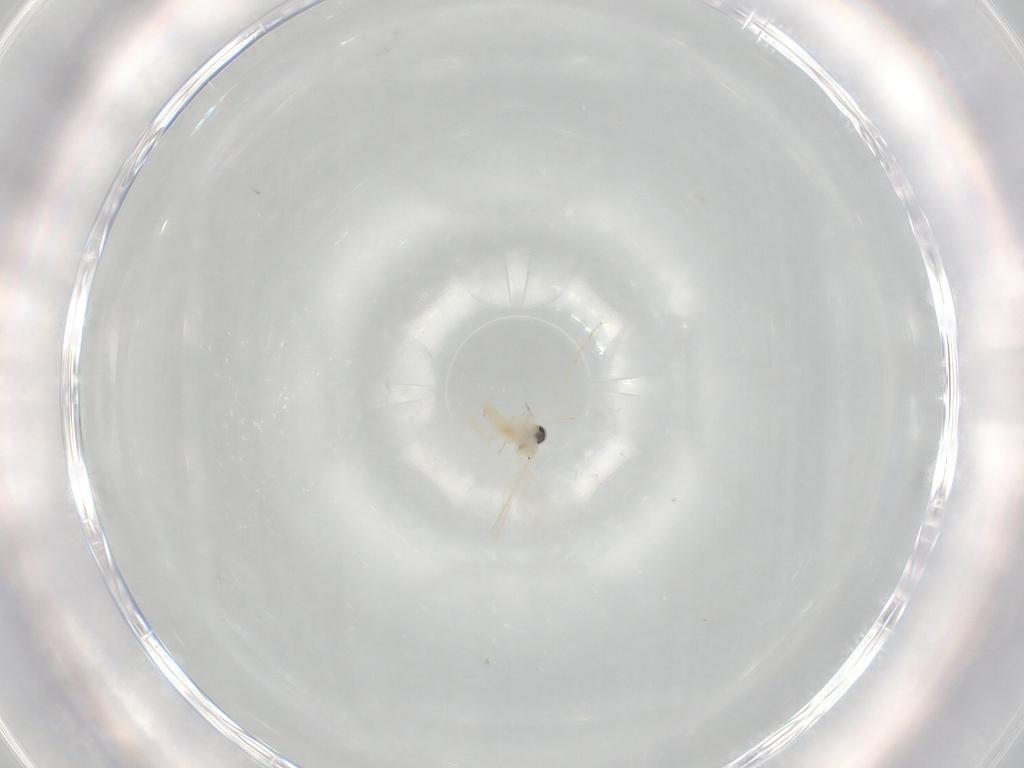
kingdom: Animalia
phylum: Arthropoda
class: Insecta
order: Diptera
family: Cecidomyiidae
